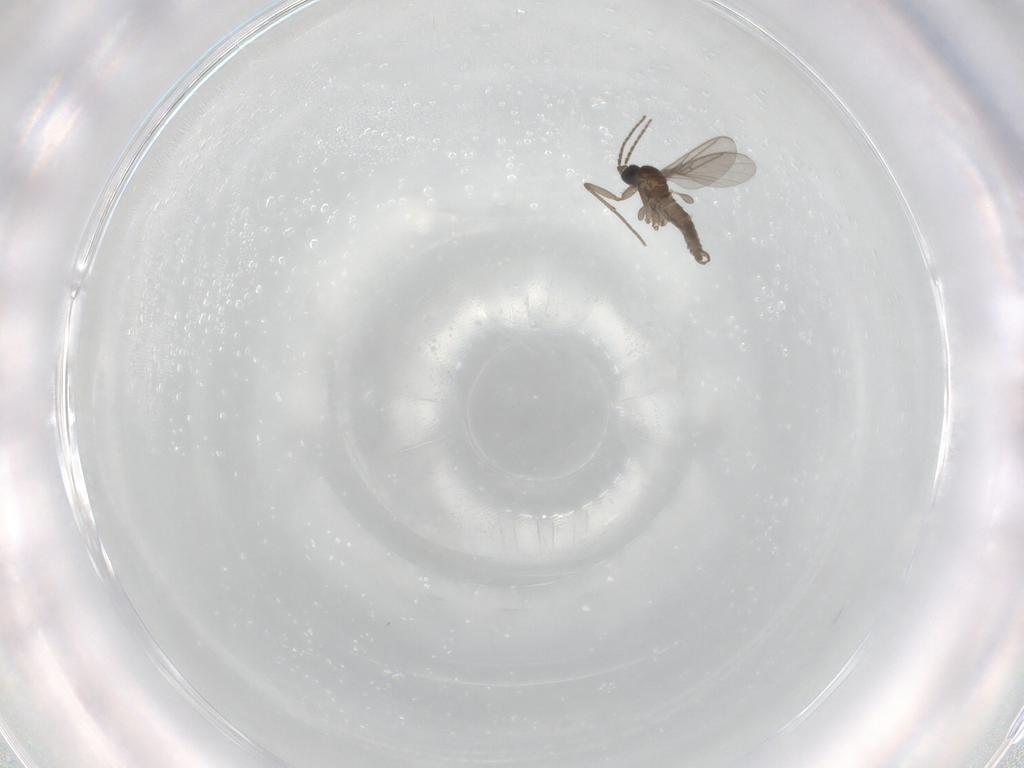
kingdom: Animalia
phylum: Arthropoda
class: Insecta
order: Diptera
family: Sciaridae
